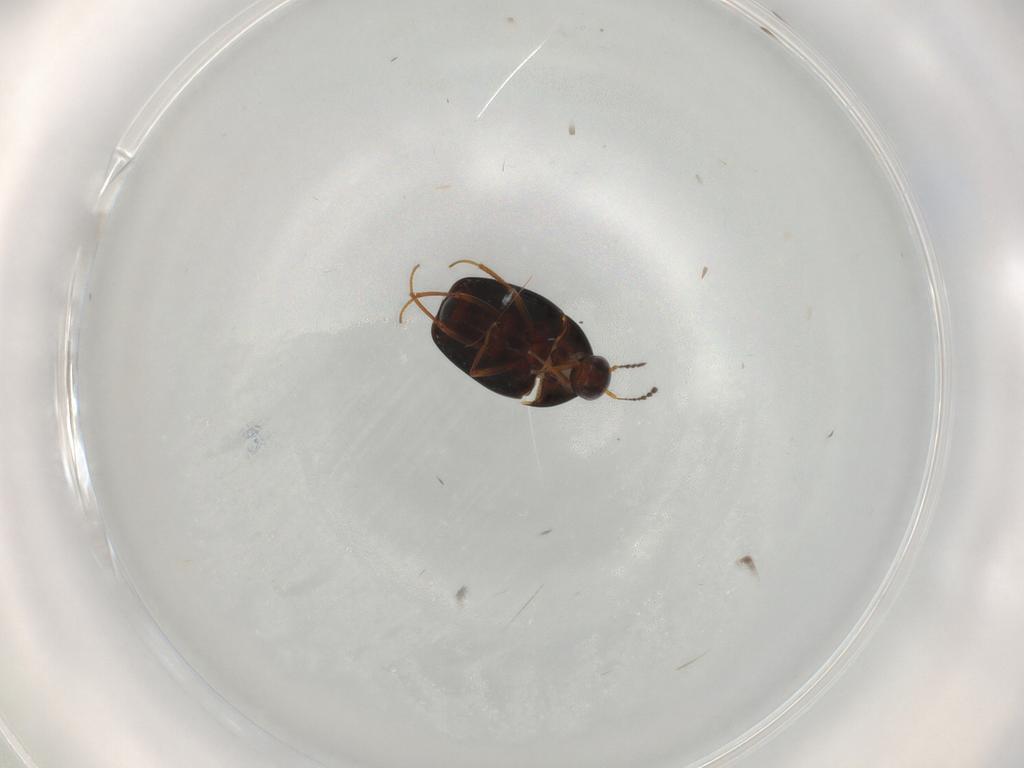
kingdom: Animalia
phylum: Arthropoda
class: Insecta
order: Coleoptera
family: Staphylinidae
